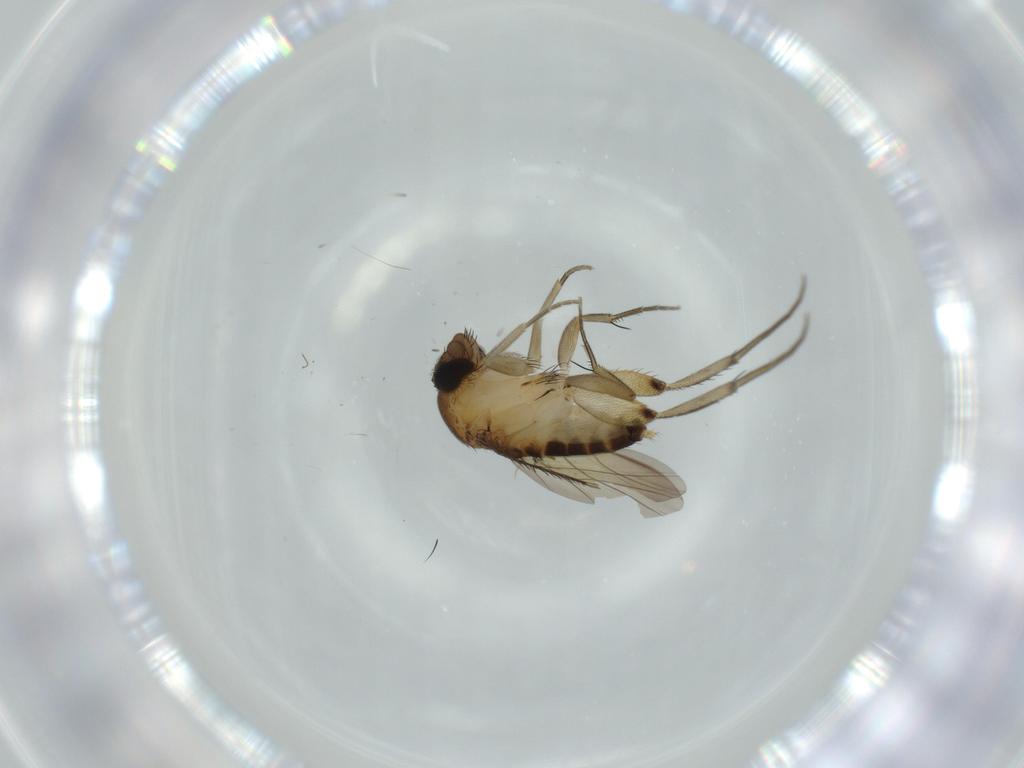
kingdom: Animalia
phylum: Arthropoda
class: Insecta
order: Diptera
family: Phoridae
